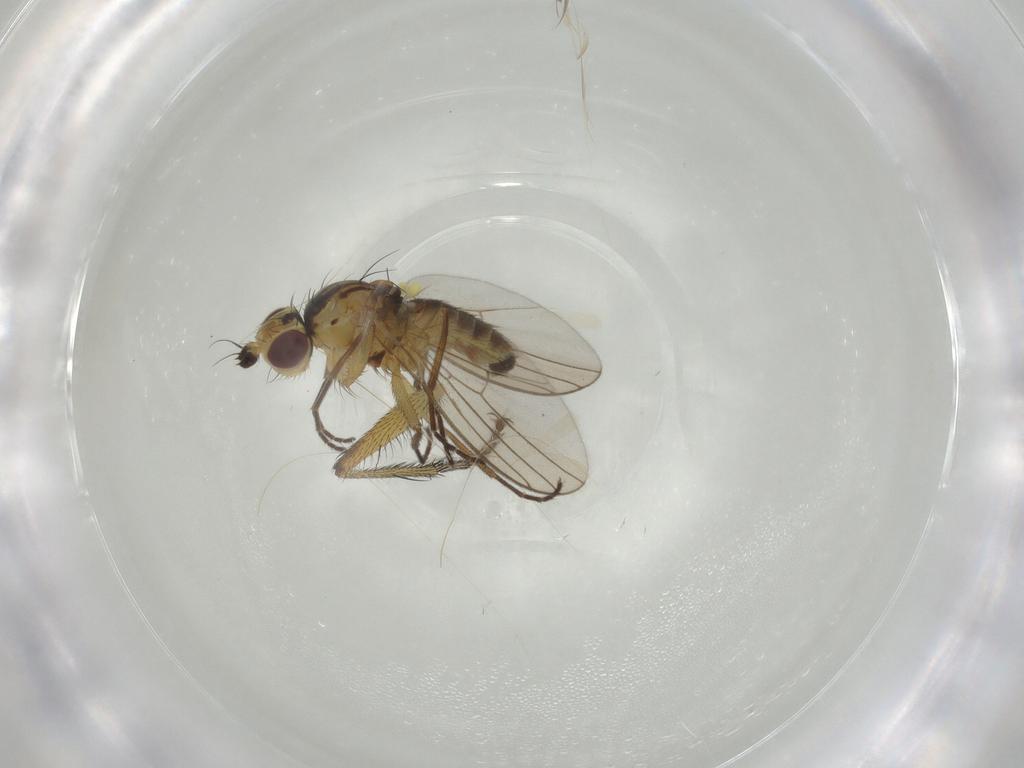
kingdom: Animalia
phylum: Arthropoda
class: Insecta
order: Diptera
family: Agromyzidae
